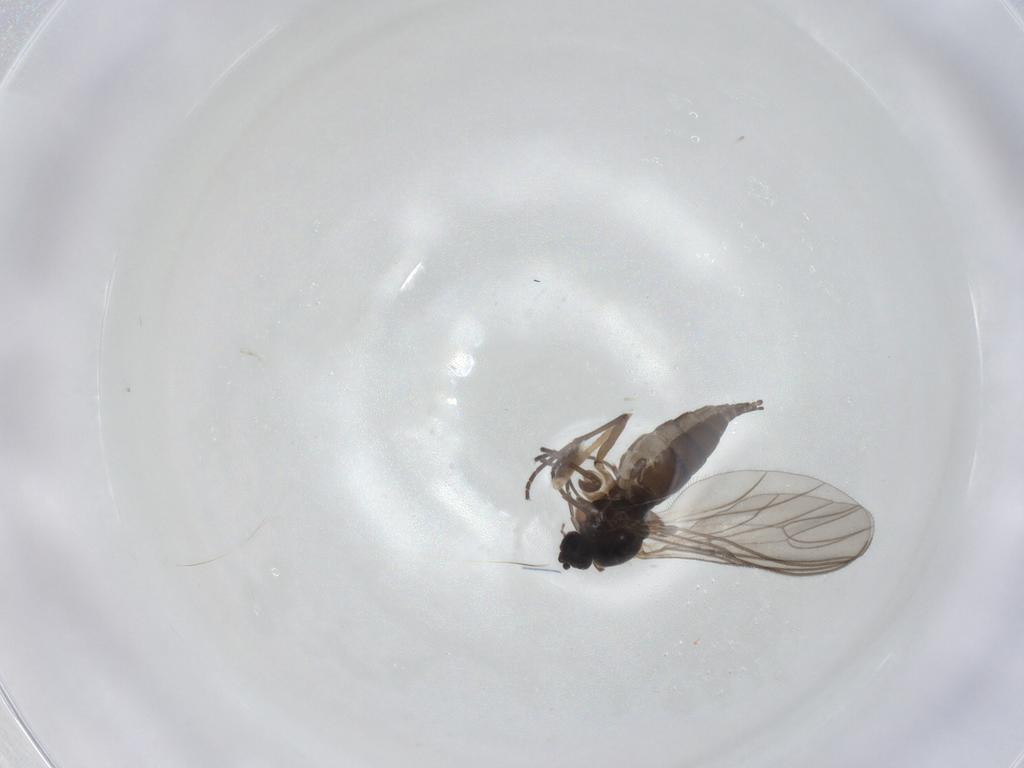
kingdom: Animalia
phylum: Arthropoda
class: Insecta
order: Diptera
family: Sciaridae
